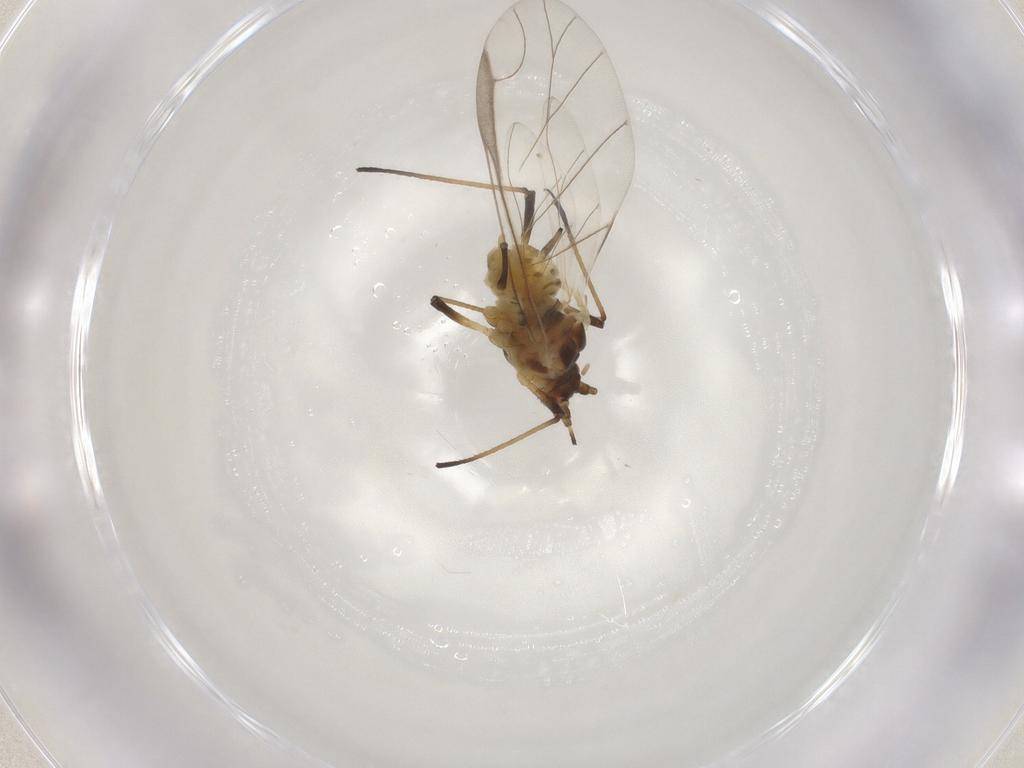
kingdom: Animalia
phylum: Arthropoda
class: Insecta
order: Hemiptera
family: Aphididae
